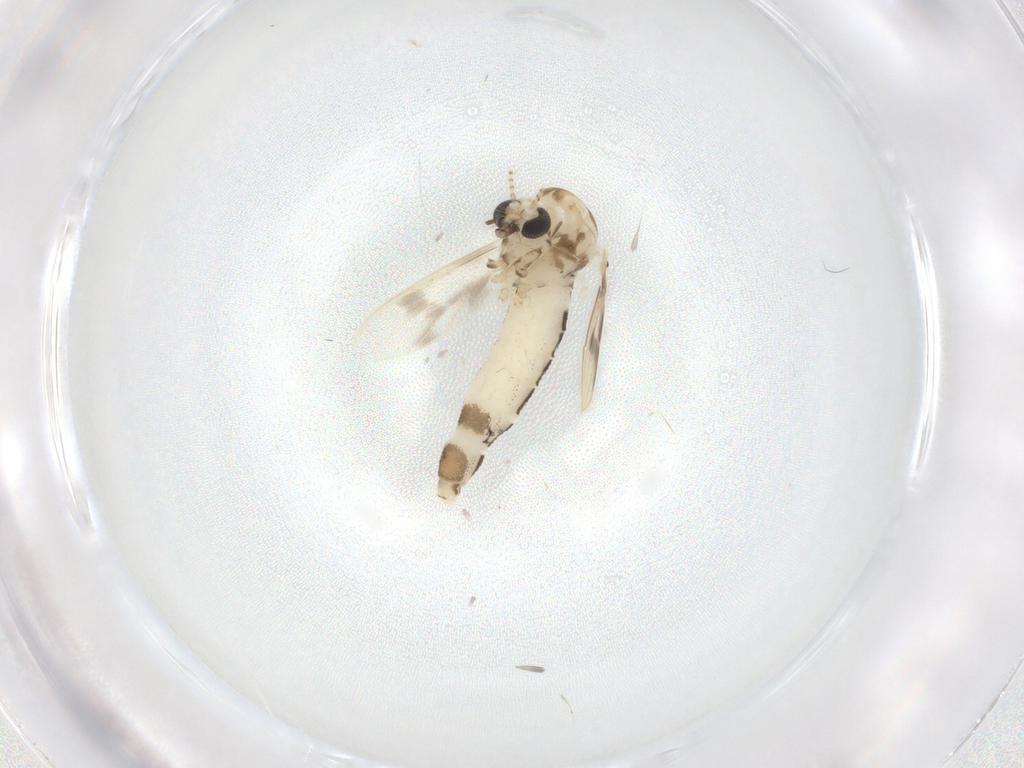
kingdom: Animalia
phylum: Arthropoda
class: Insecta
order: Diptera
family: Corethrellidae
